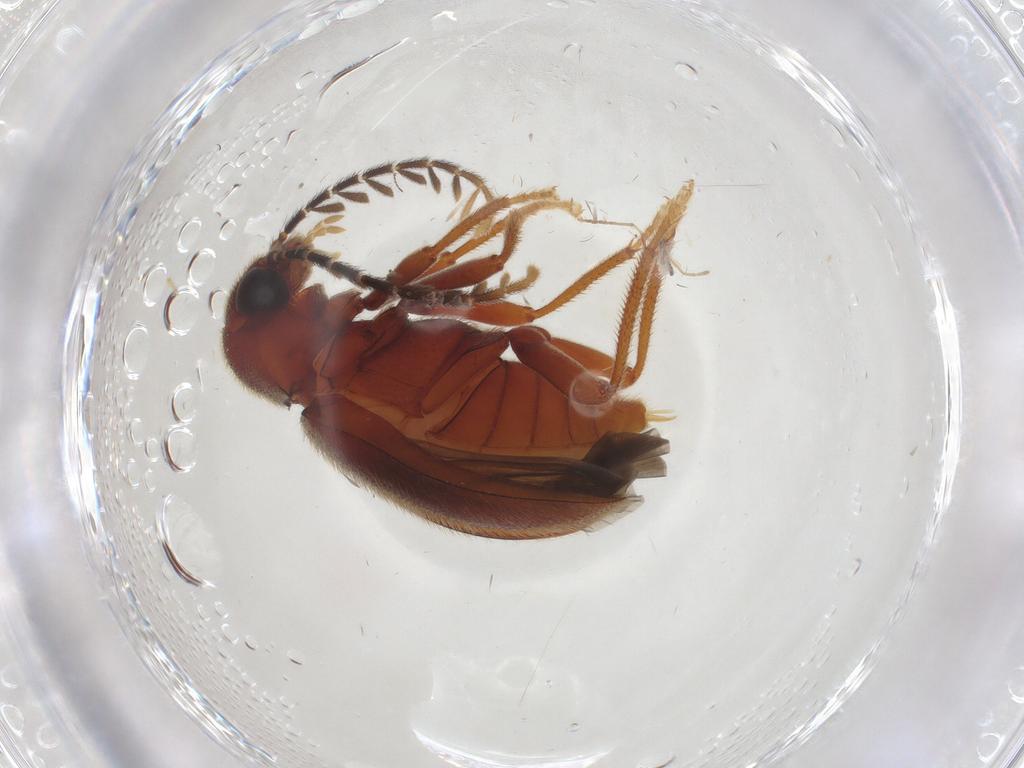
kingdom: Animalia
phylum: Arthropoda
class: Insecta
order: Coleoptera
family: Ptilodactylidae
